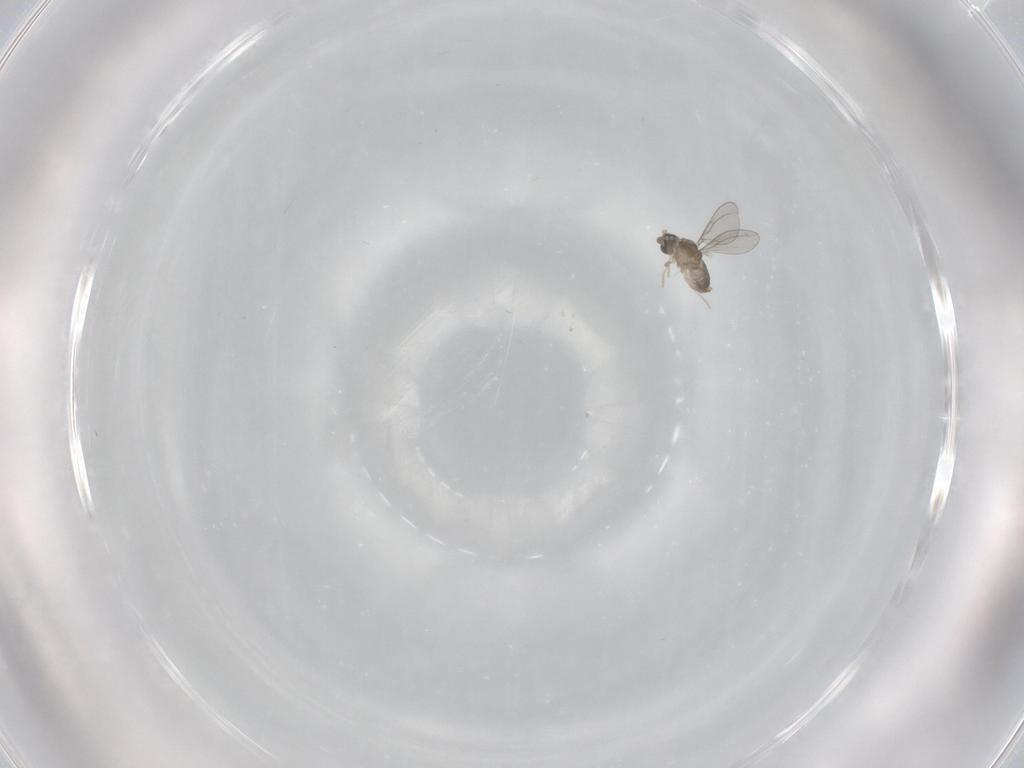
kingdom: Animalia
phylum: Arthropoda
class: Insecta
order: Diptera
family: Cecidomyiidae
